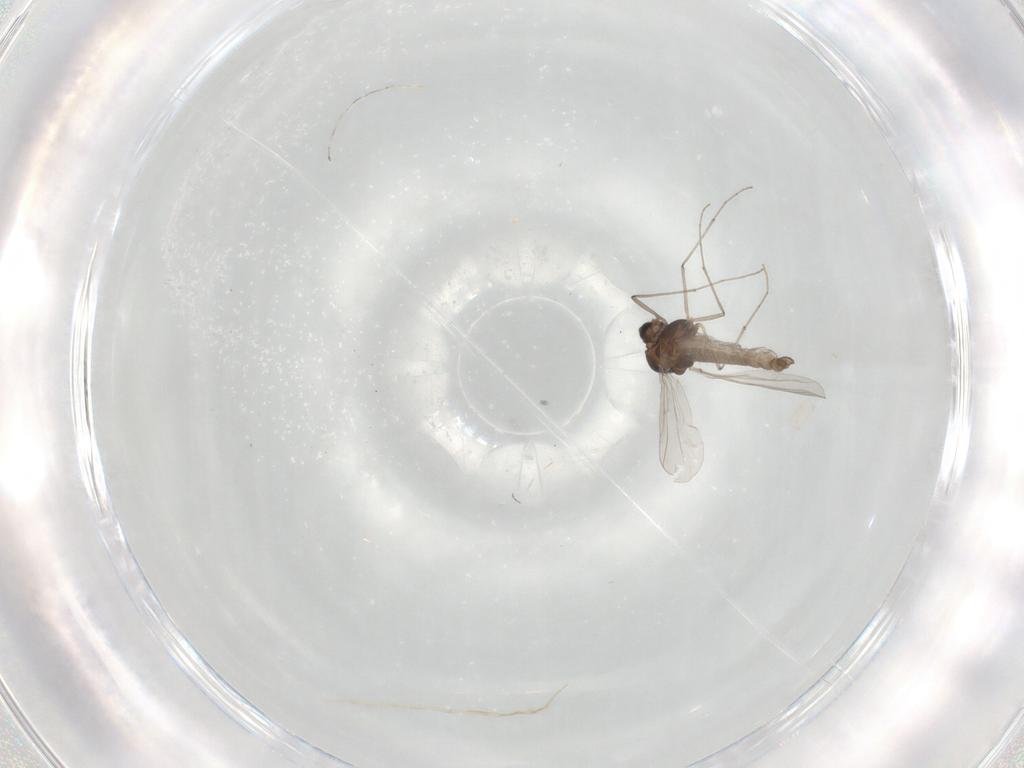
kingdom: Animalia
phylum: Arthropoda
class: Insecta
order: Diptera
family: Chironomidae
